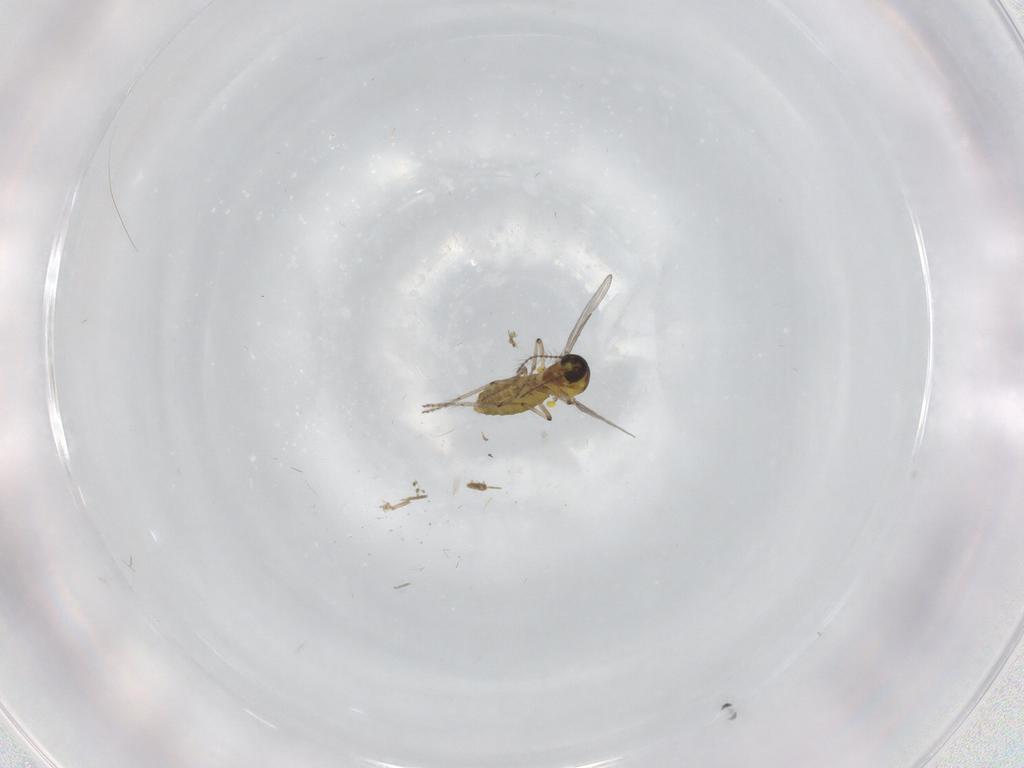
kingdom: Animalia
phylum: Arthropoda
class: Insecta
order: Diptera
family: Ceratopogonidae
